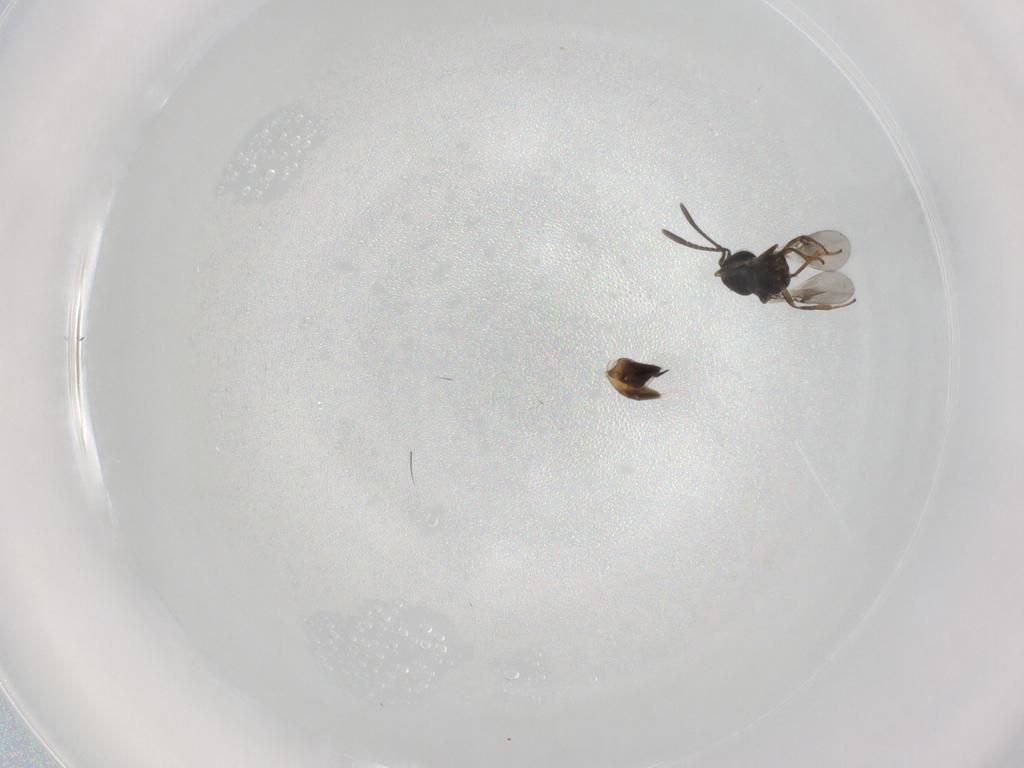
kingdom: Animalia
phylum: Arthropoda
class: Insecta
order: Hymenoptera
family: Encyrtidae
